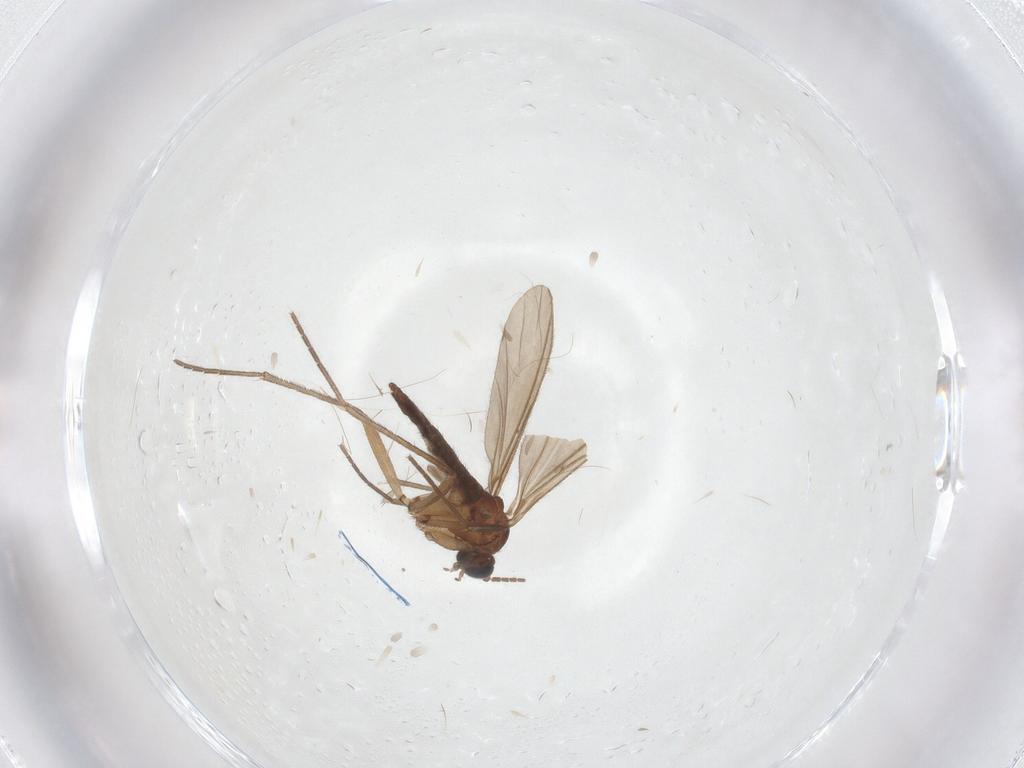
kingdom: Animalia
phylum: Arthropoda
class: Insecta
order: Diptera
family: Sciaridae
